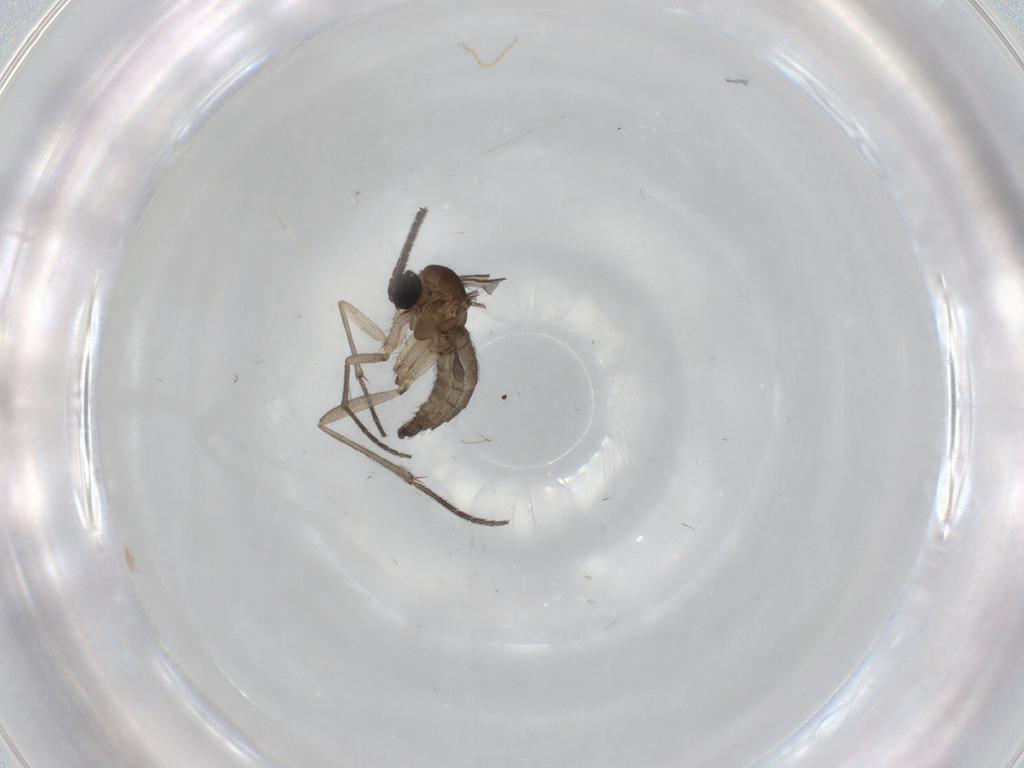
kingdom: Animalia
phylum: Arthropoda
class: Insecta
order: Diptera
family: Sciaridae
